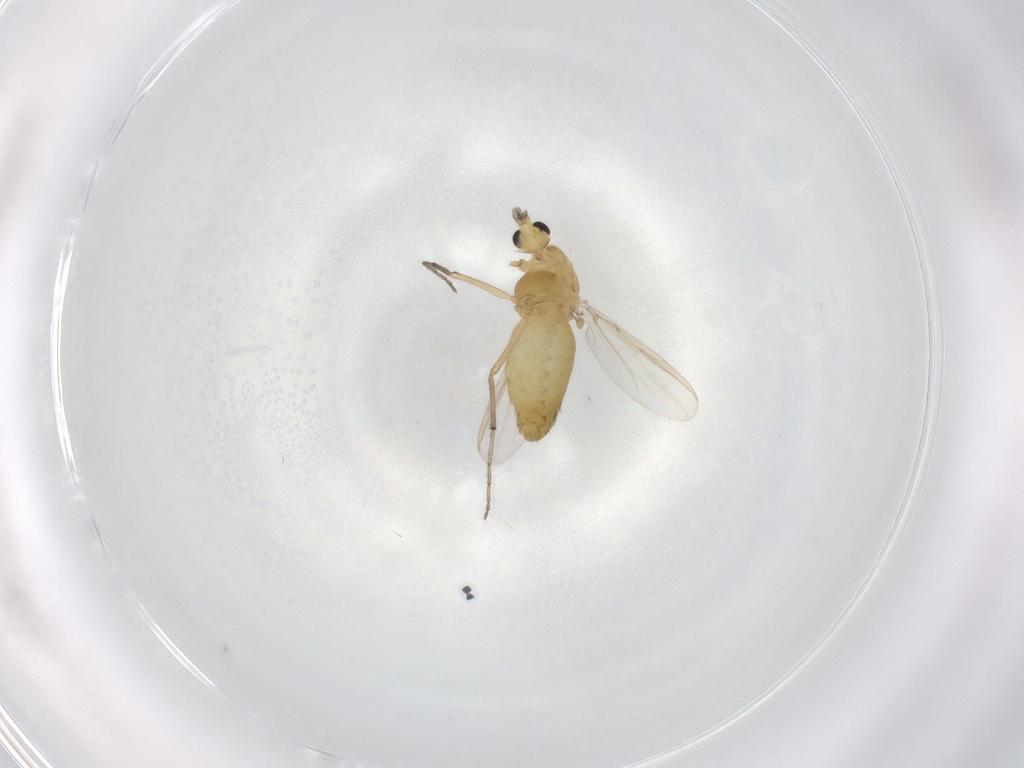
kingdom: Animalia
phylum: Arthropoda
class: Insecta
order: Diptera
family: Chironomidae
